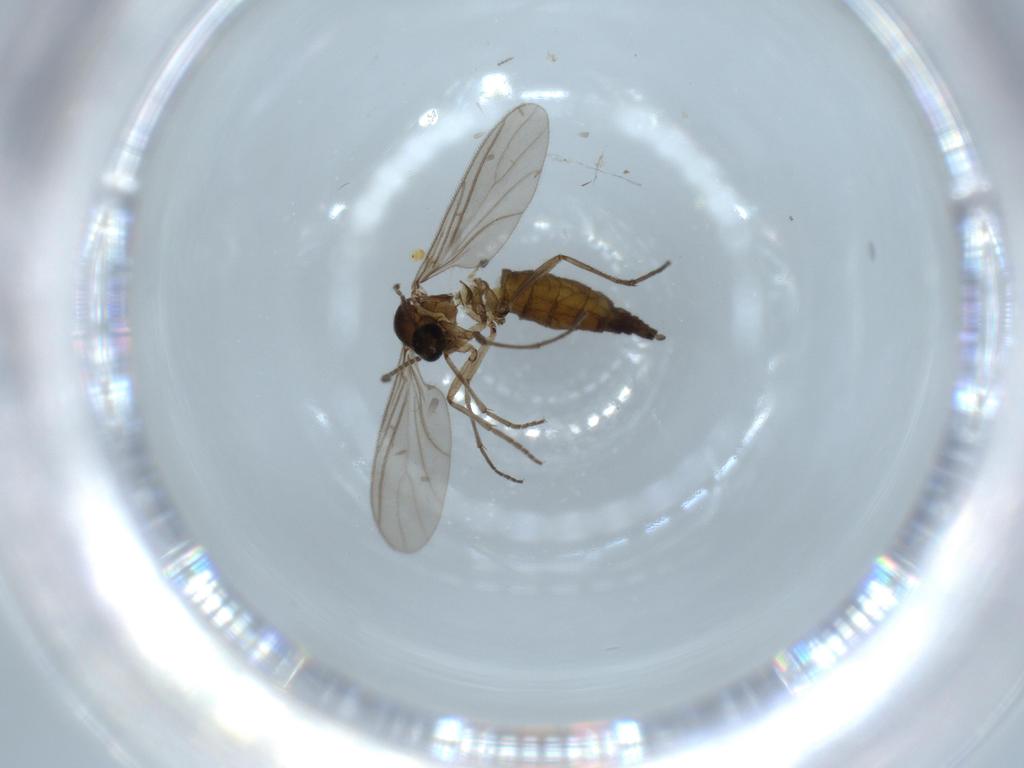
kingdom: Animalia
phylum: Arthropoda
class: Insecta
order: Diptera
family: Sciaridae
